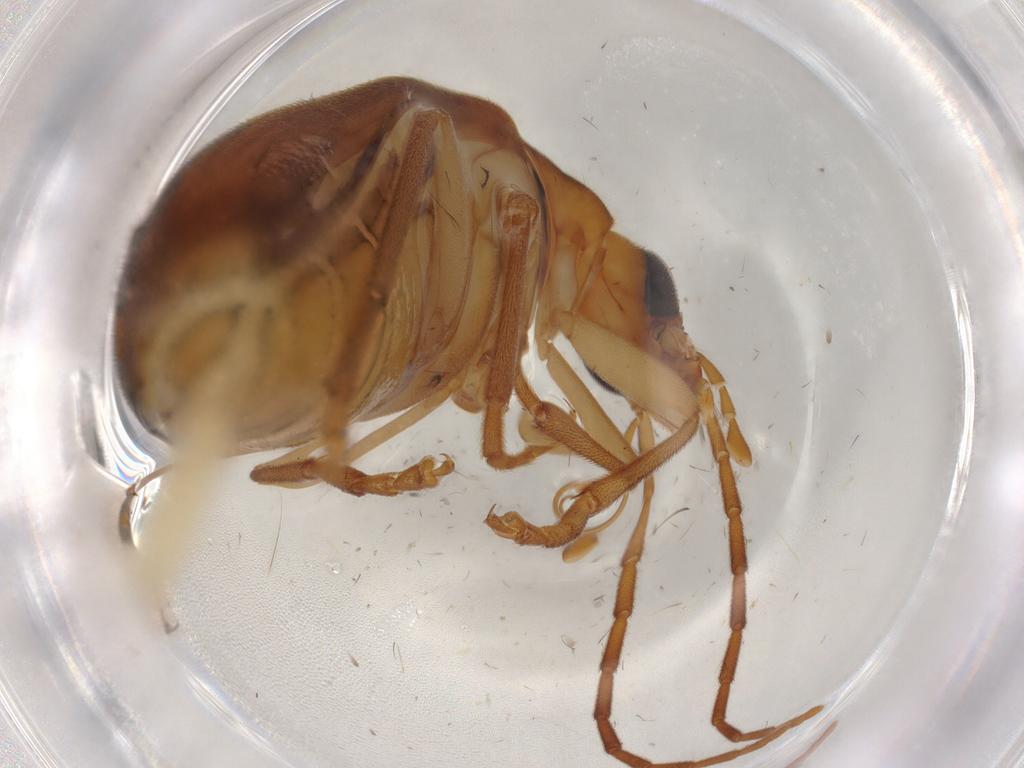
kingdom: Animalia
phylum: Arthropoda
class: Insecta
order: Coleoptera
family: Oedemeridae
